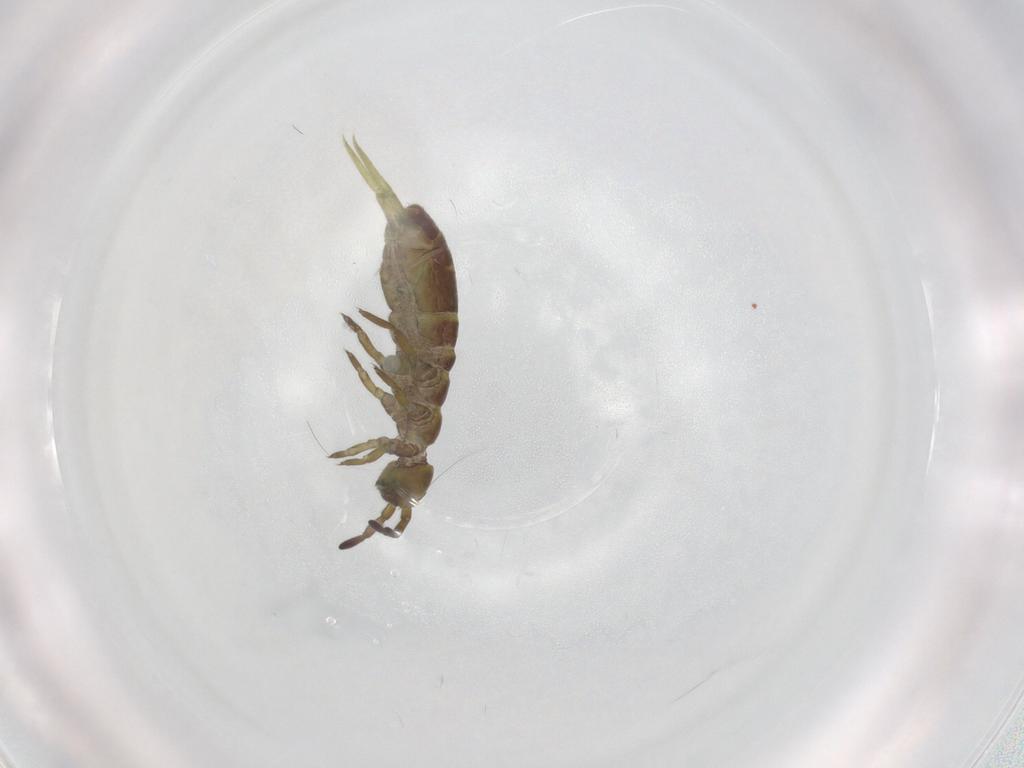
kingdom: Animalia
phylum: Arthropoda
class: Collembola
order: Entomobryomorpha
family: Isotomidae
